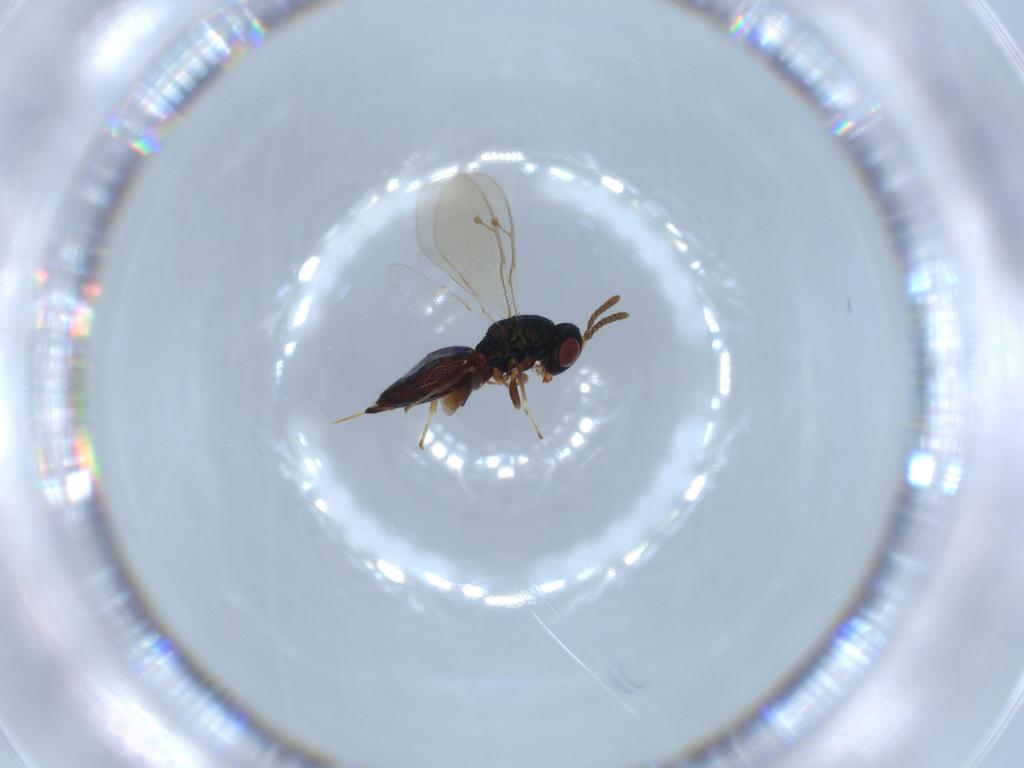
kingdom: Animalia
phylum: Arthropoda
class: Insecta
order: Hymenoptera
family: Pteromalidae
